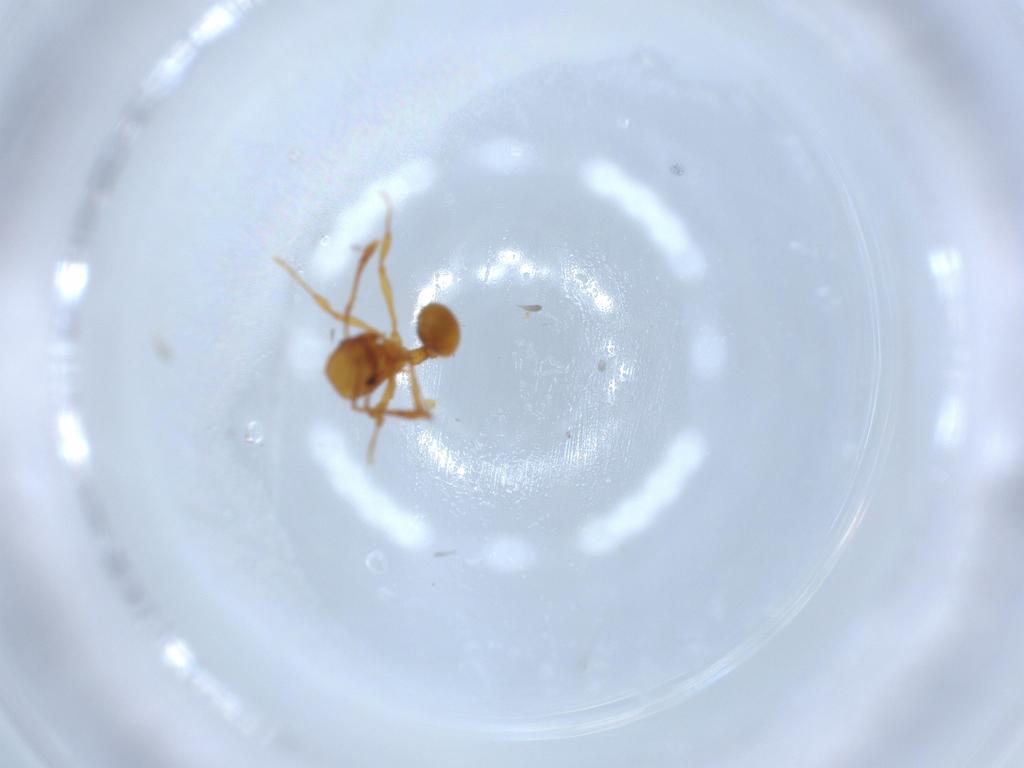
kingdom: Animalia
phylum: Arthropoda
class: Insecta
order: Hymenoptera
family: Formicidae
